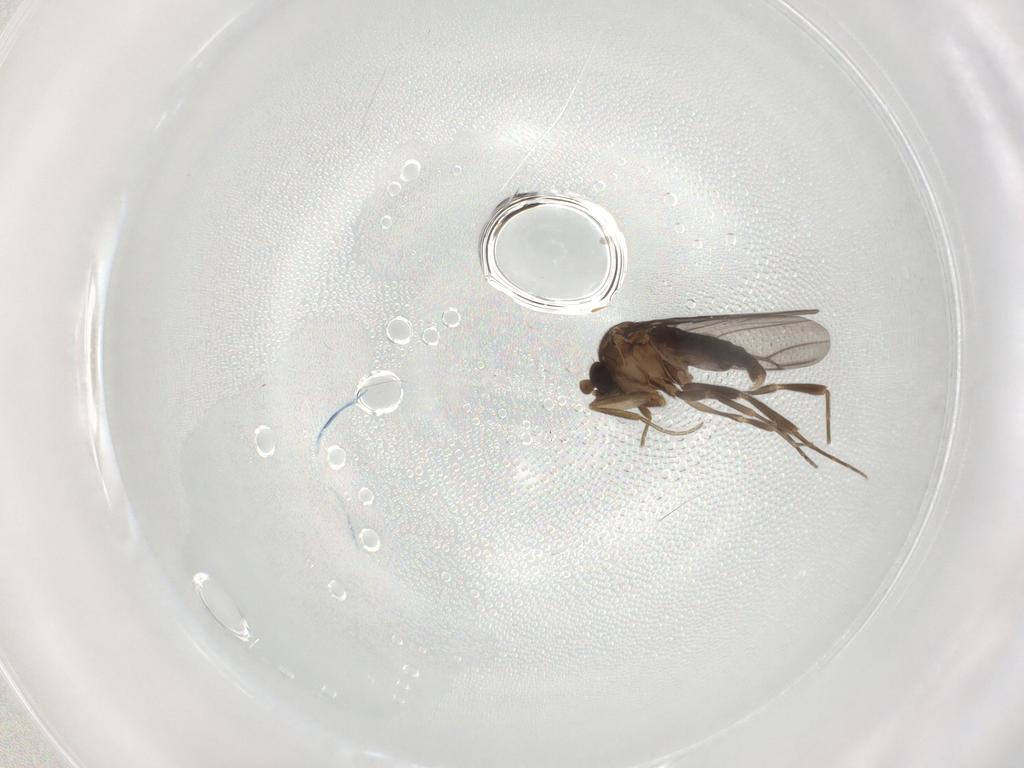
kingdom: Animalia
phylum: Arthropoda
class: Insecta
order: Diptera
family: Phoridae
